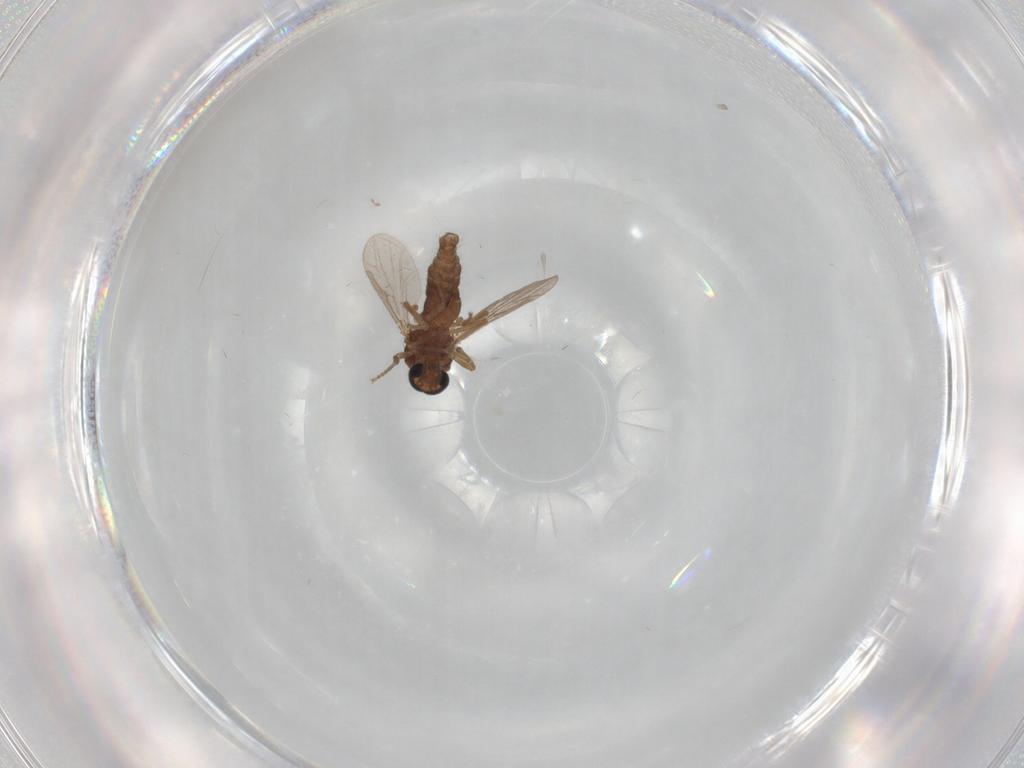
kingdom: Animalia
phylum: Arthropoda
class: Insecta
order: Diptera
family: Ceratopogonidae
